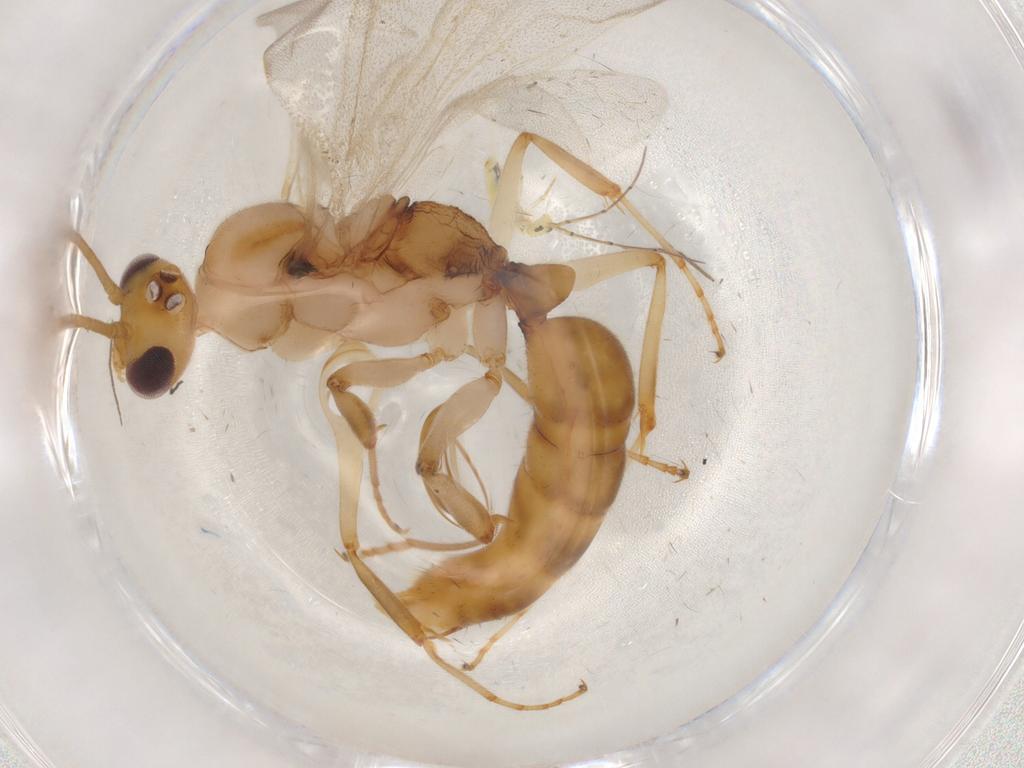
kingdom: Animalia
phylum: Arthropoda
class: Insecta
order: Hymenoptera
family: Formicidae
